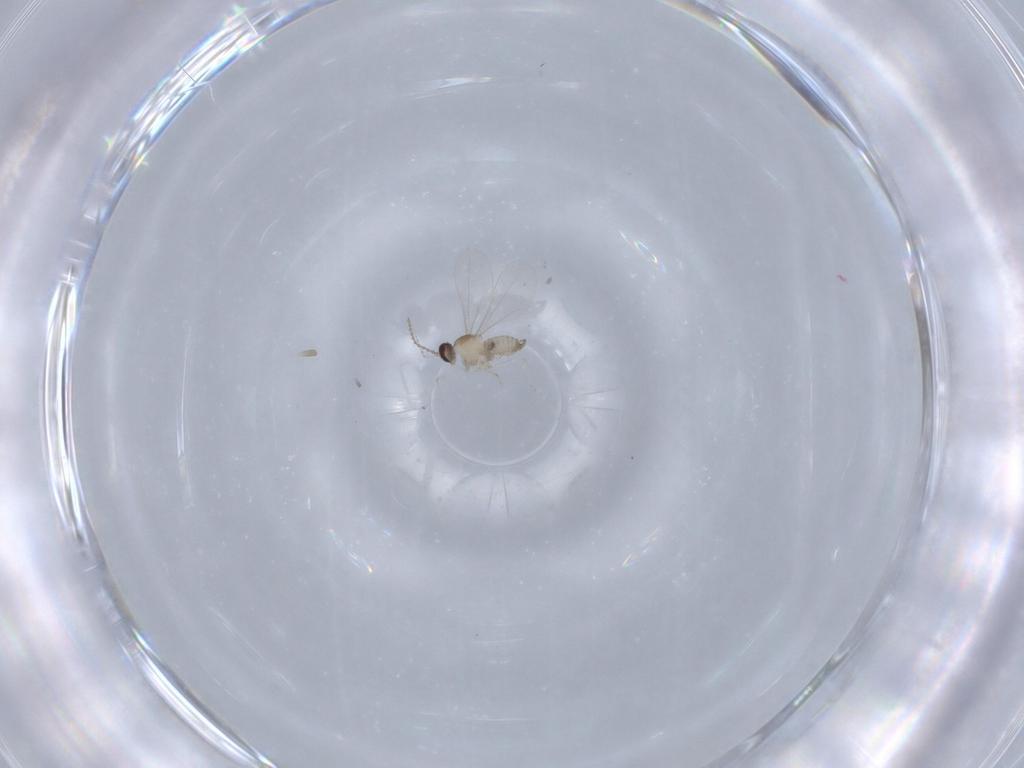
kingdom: Animalia
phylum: Arthropoda
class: Insecta
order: Diptera
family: Cecidomyiidae
